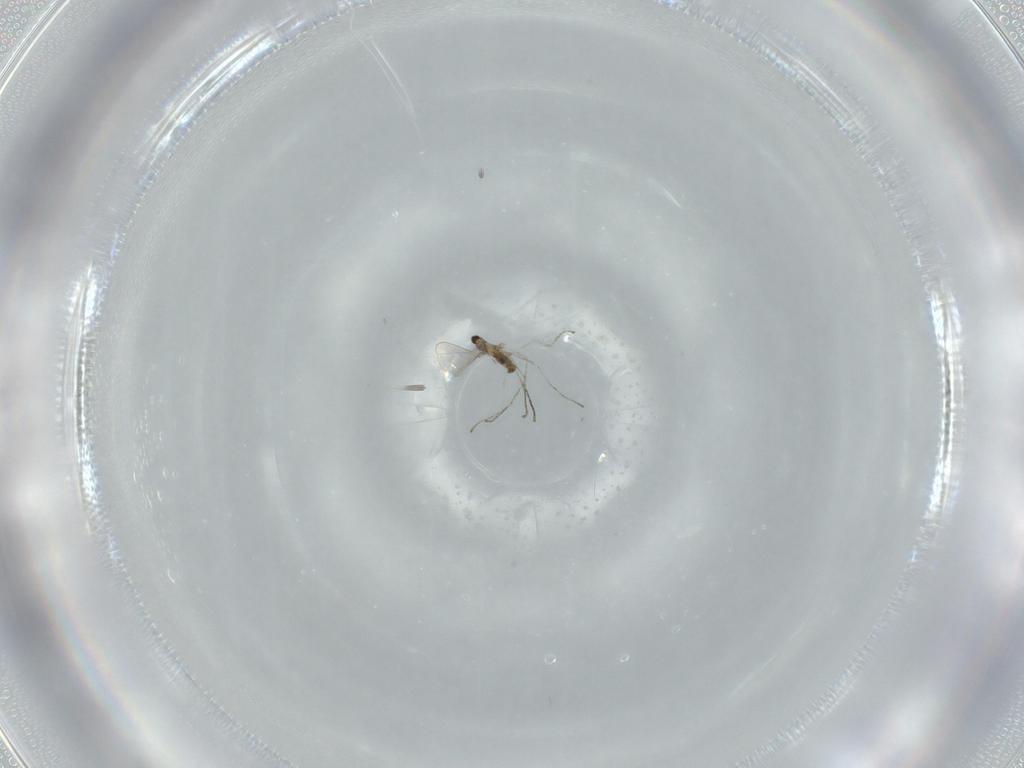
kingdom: Animalia
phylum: Arthropoda
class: Insecta
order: Diptera
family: Cecidomyiidae
